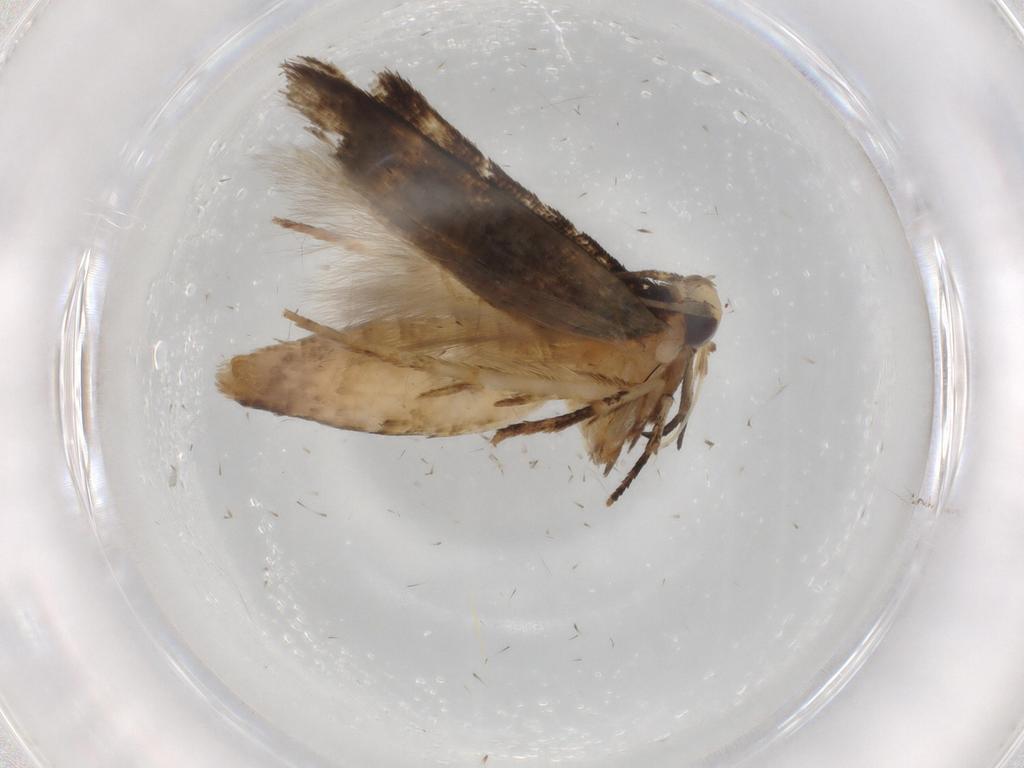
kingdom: Animalia
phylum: Arthropoda
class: Insecta
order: Lepidoptera
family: Crambidae
